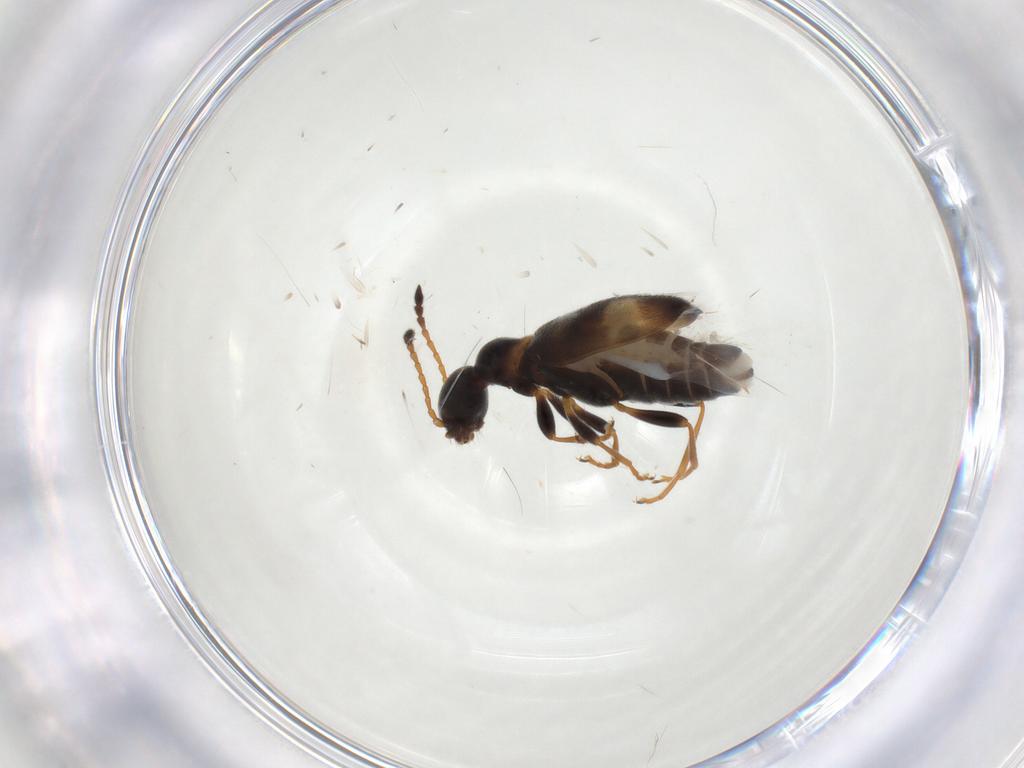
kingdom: Animalia
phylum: Arthropoda
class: Insecta
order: Coleoptera
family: Anthicidae
